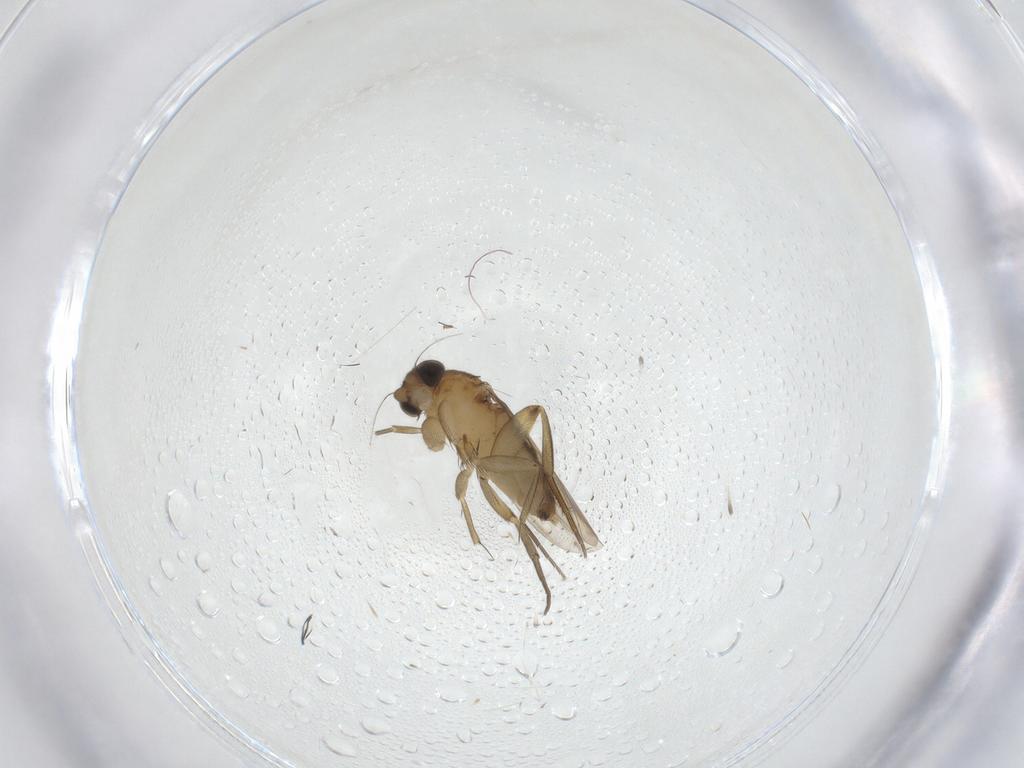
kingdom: Animalia
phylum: Arthropoda
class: Insecta
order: Diptera
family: Phoridae
